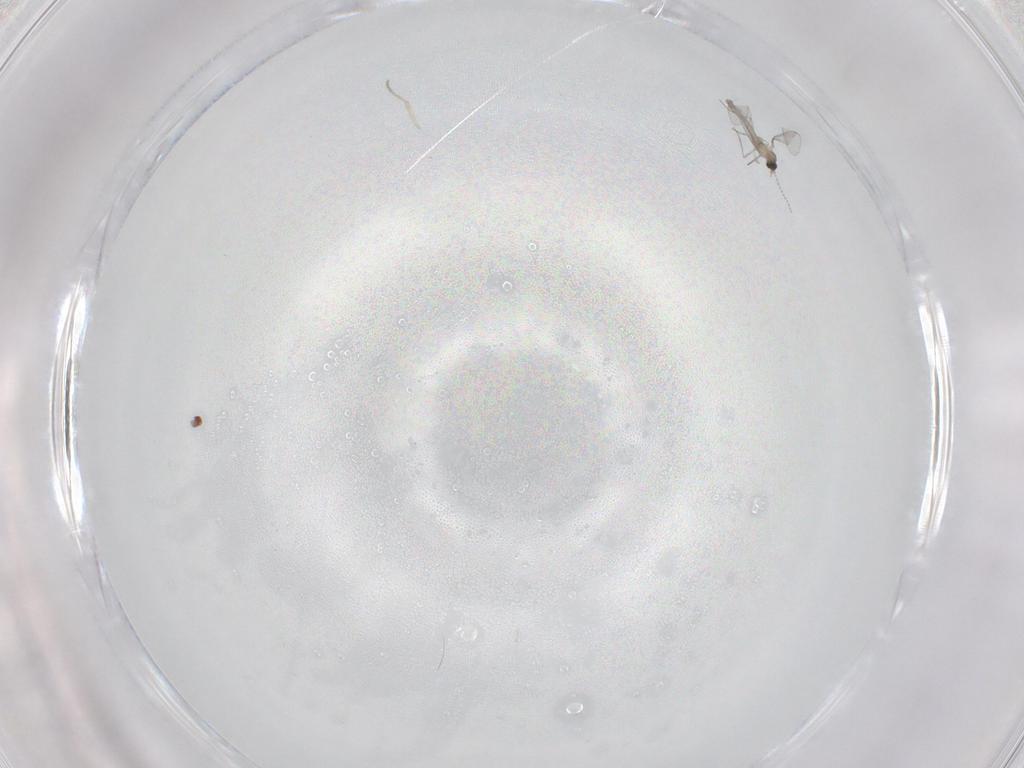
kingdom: Animalia
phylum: Arthropoda
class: Insecta
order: Diptera
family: Cecidomyiidae
